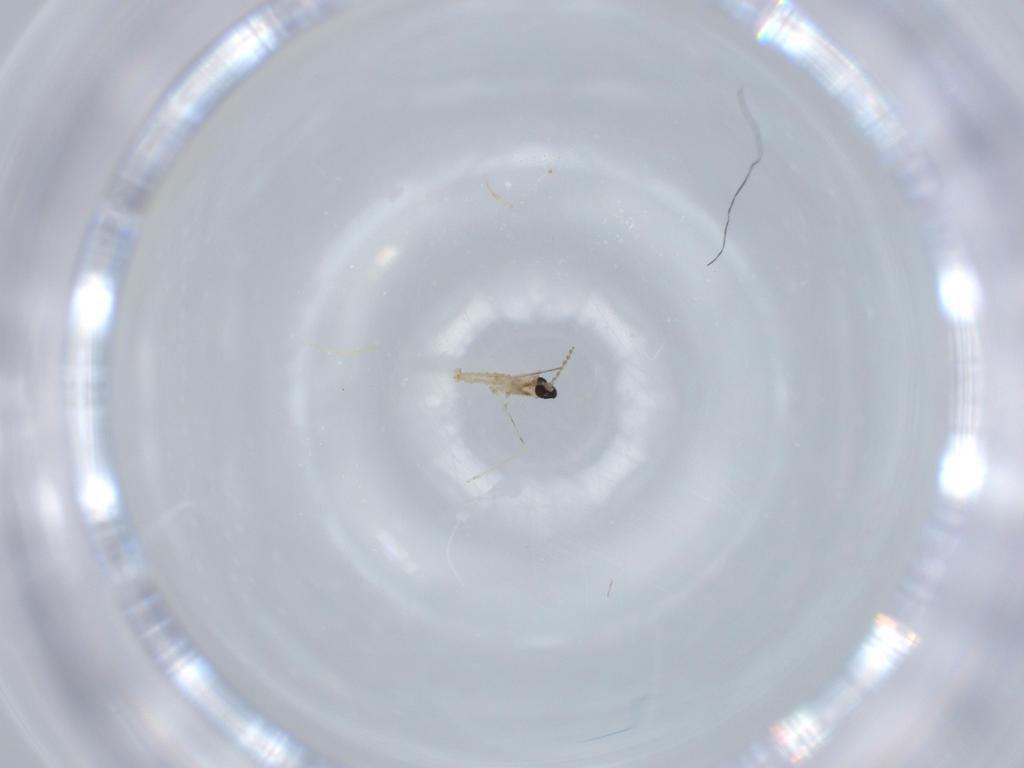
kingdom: Animalia
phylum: Arthropoda
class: Insecta
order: Diptera
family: Cecidomyiidae
